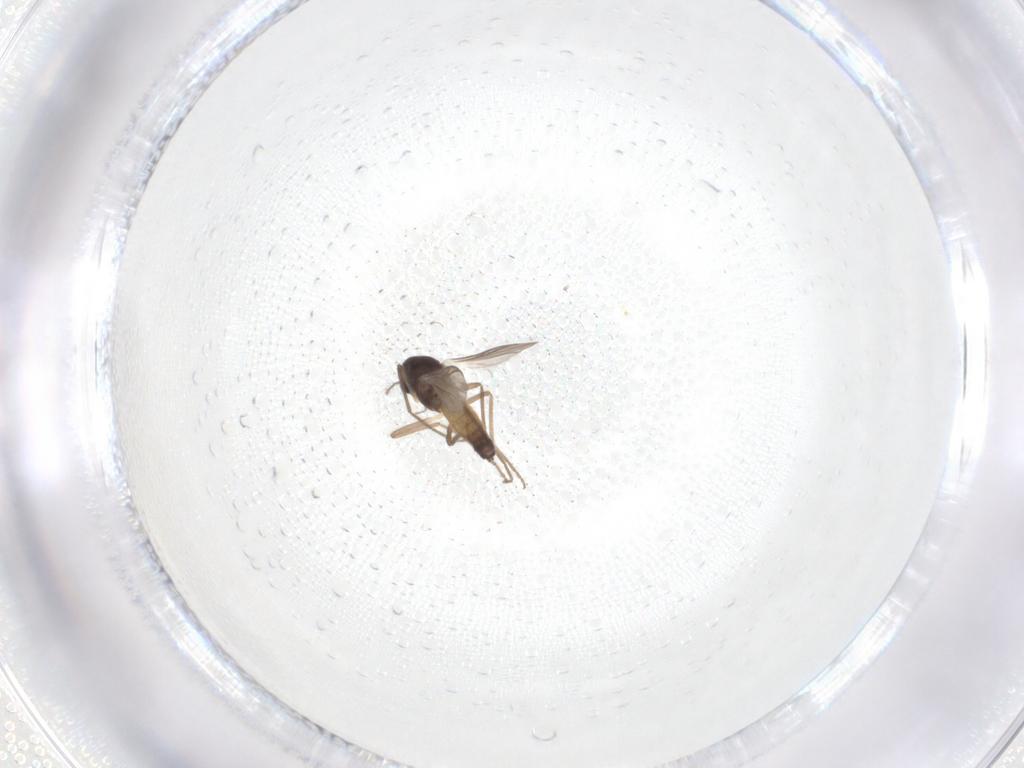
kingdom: Animalia
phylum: Arthropoda
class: Insecta
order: Diptera
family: Chironomidae
